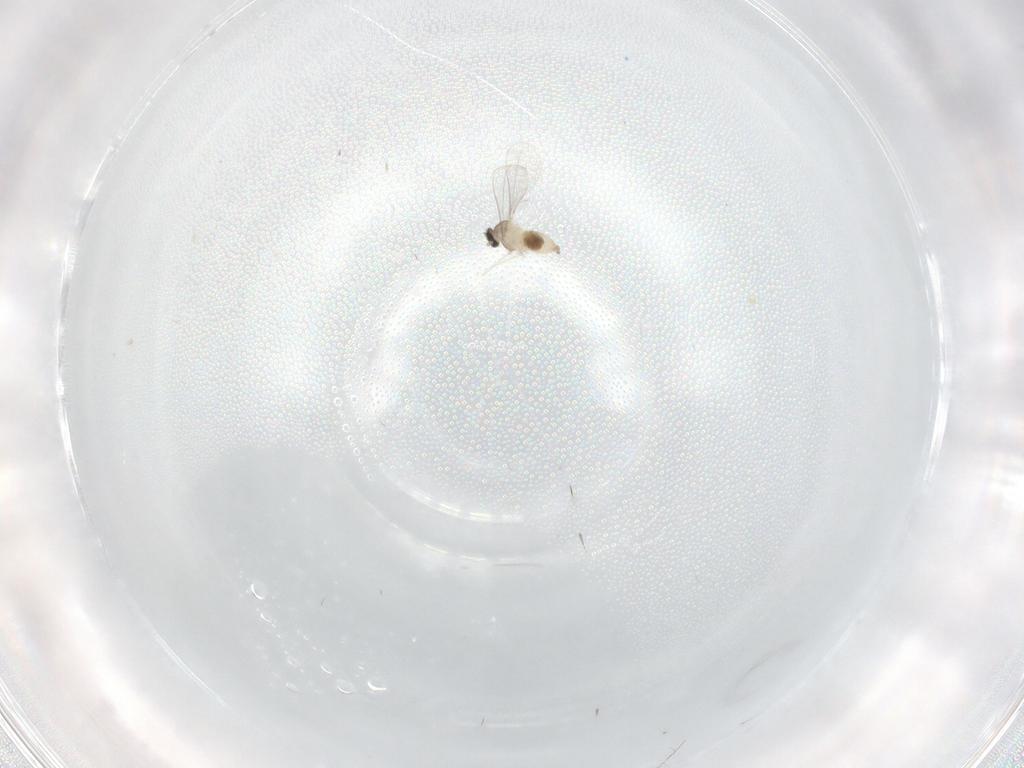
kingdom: Animalia
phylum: Arthropoda
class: Insecta
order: Diptera
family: Cecidomyiidae
